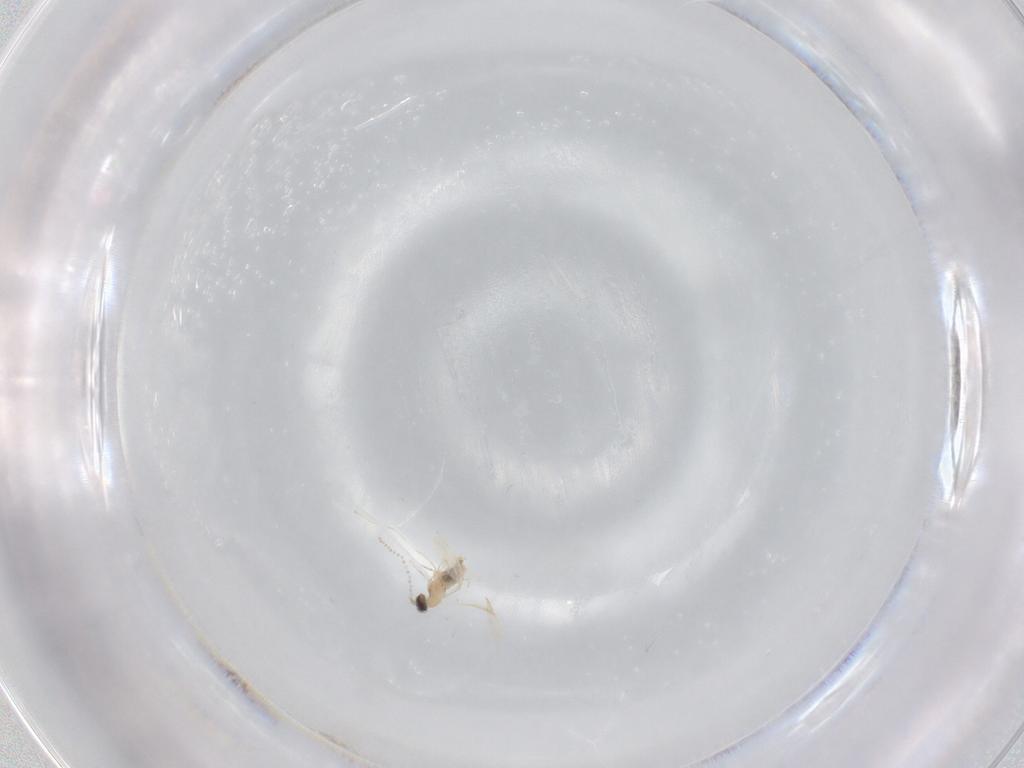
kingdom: Animalia
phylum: Arthropoda
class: Insecta
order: Diptera
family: Cecidomyiidae
